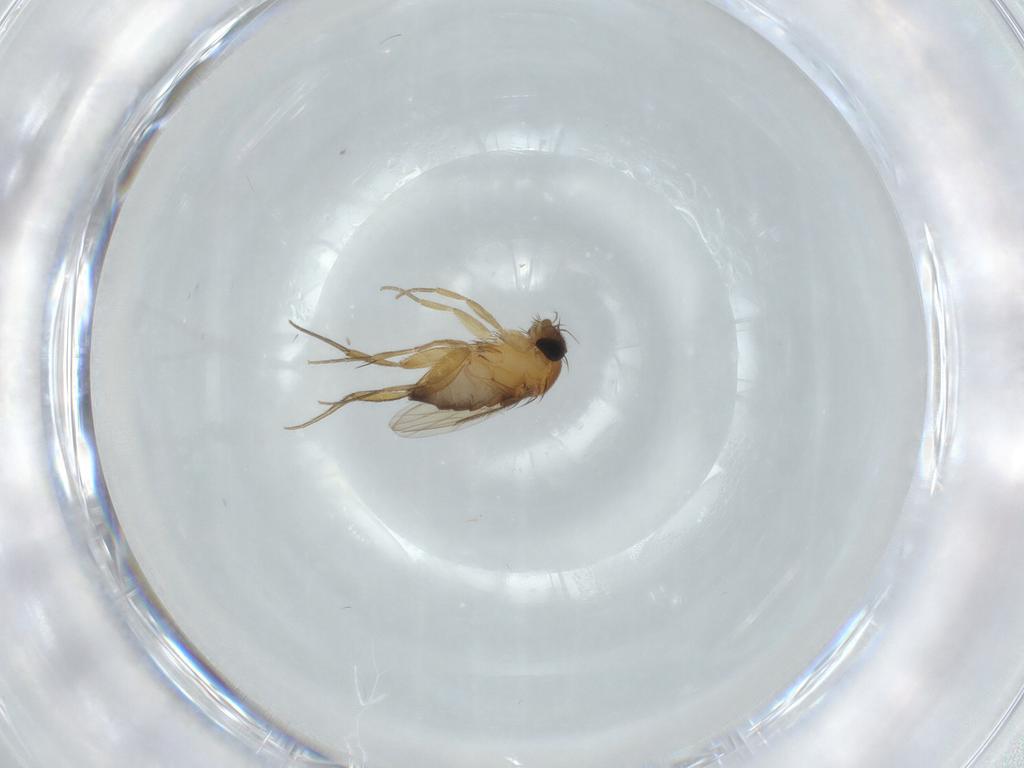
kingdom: Animalia
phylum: Arthropoda
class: Insecta
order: Diptera
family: Phoridae
